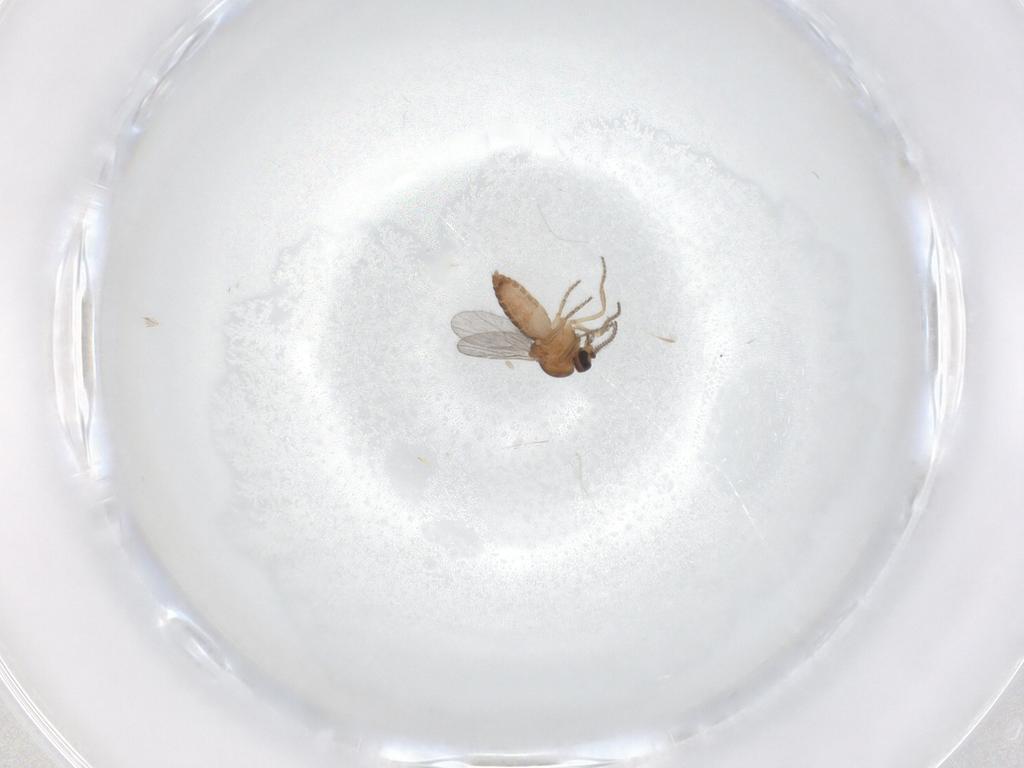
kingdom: Animalia
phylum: Arthropoda
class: Insecta
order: Diptera
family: Ceratopogonidae
